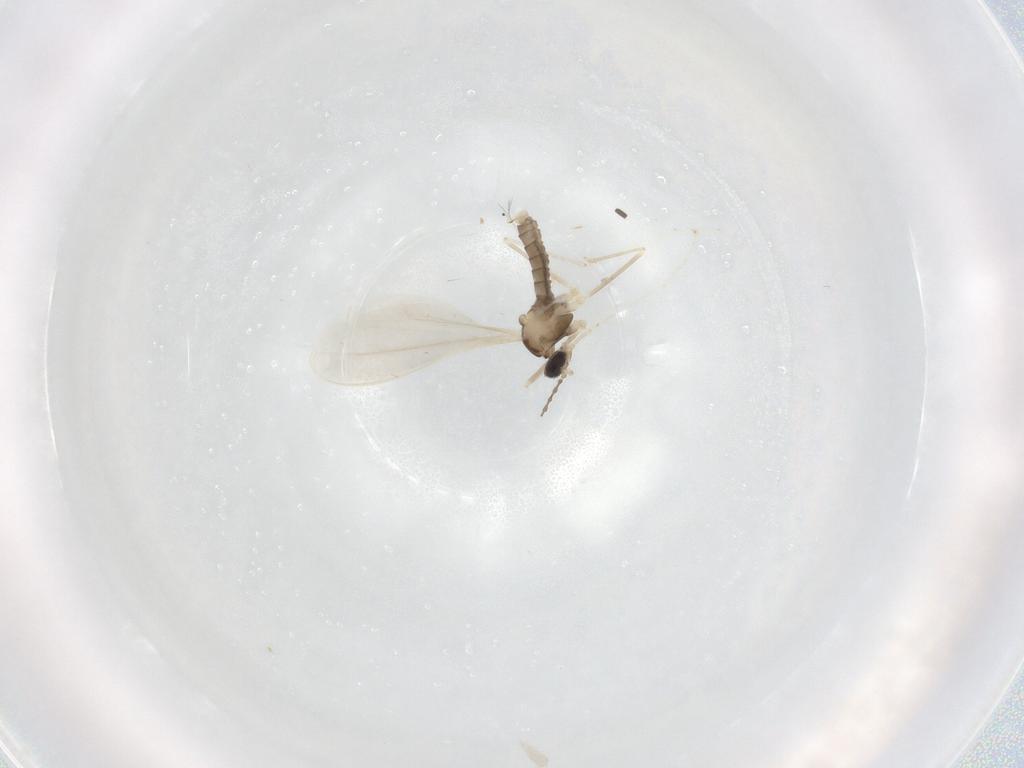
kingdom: Animalia
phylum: Arthropoda
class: Insecta
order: Diptera
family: Cecidomyiidae
